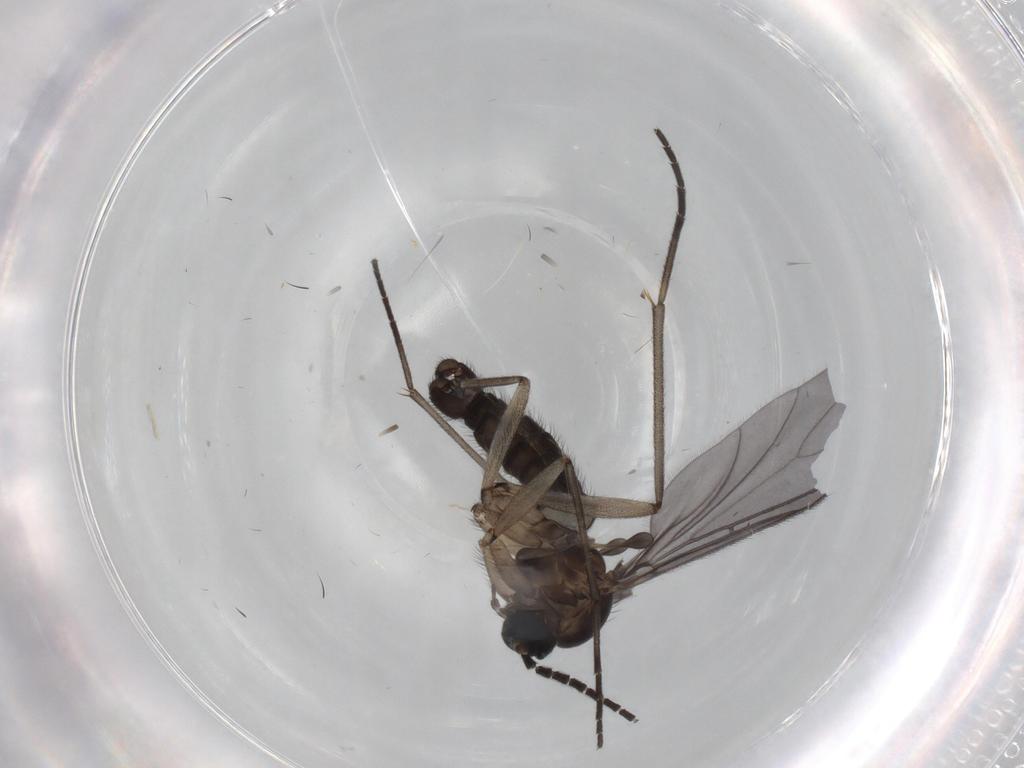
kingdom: Animalia
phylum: Arthropoda
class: Insecta
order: Diptera
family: Sciaridae
